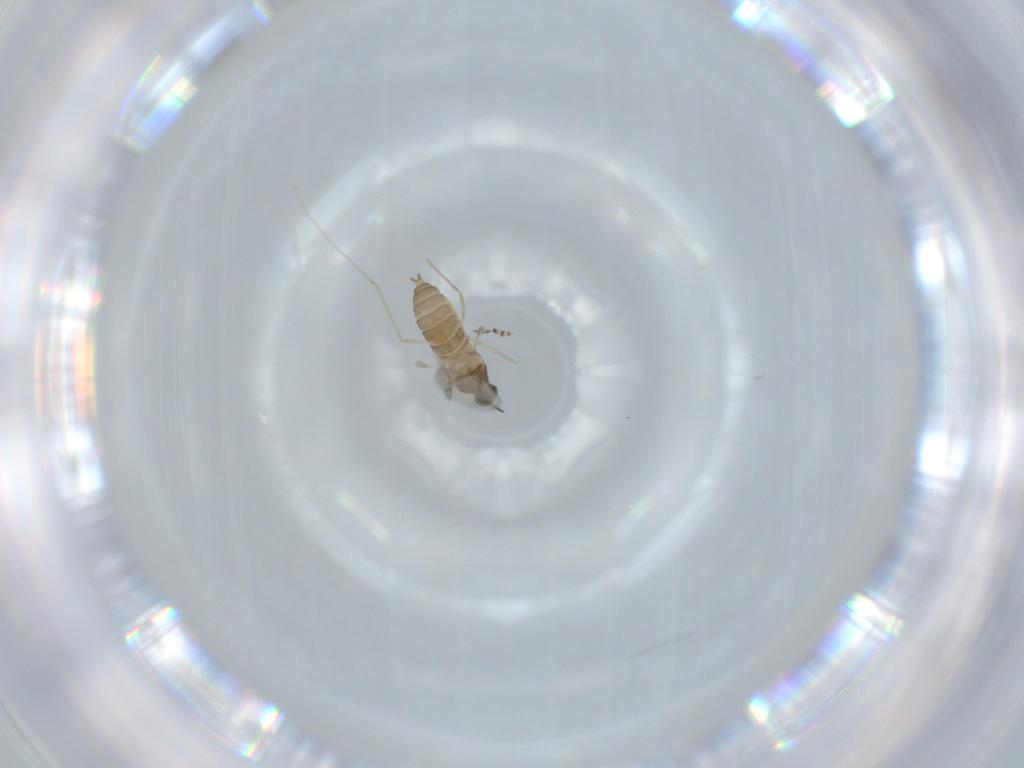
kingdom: Animalia
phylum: Arthropoda
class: Insecta
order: Diptera
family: Cecidomyiidae
